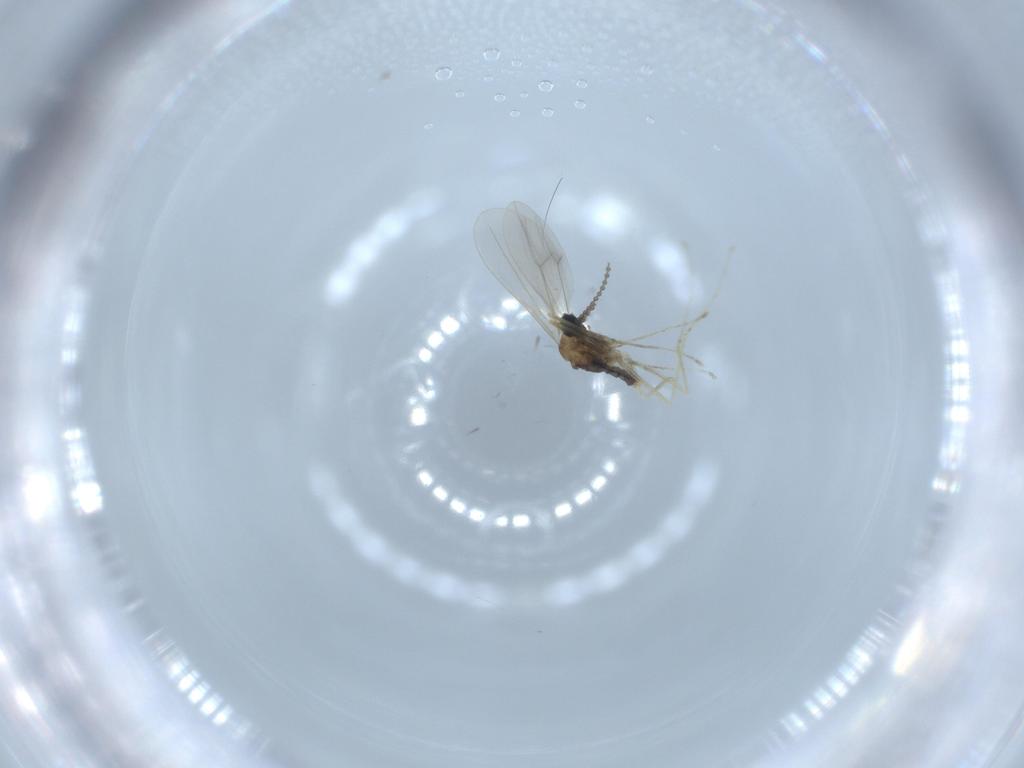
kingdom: Animalia
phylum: Arthropoda
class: Insecta
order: Diptera
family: Cecidomyiidae
